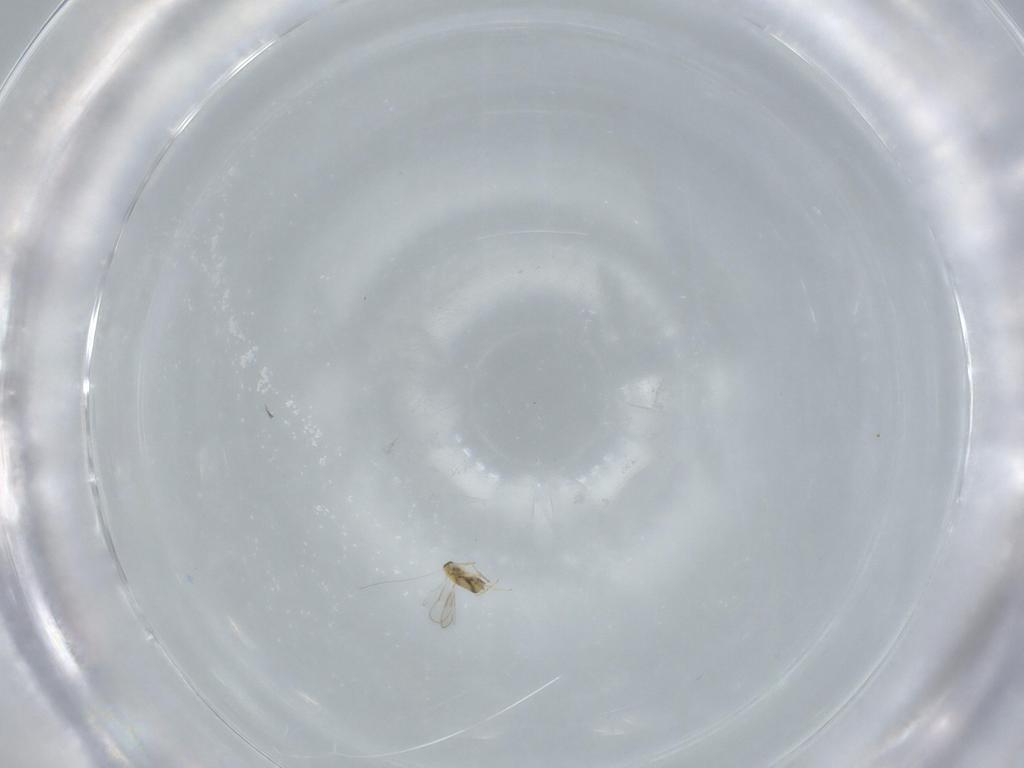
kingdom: Animalia
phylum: Arthropoda
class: Insecta
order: Hymenoptera
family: Aphelinidae
